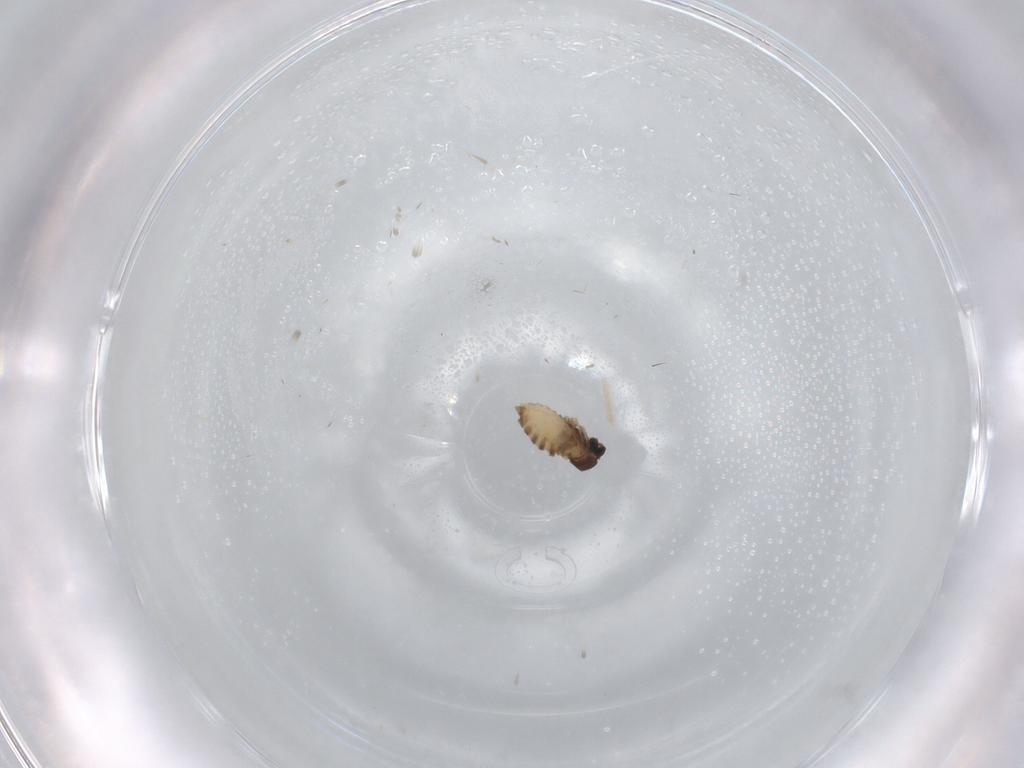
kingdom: Animalia
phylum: Arthropoda
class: Insecta
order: Diptera
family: Cecidomyiidae
